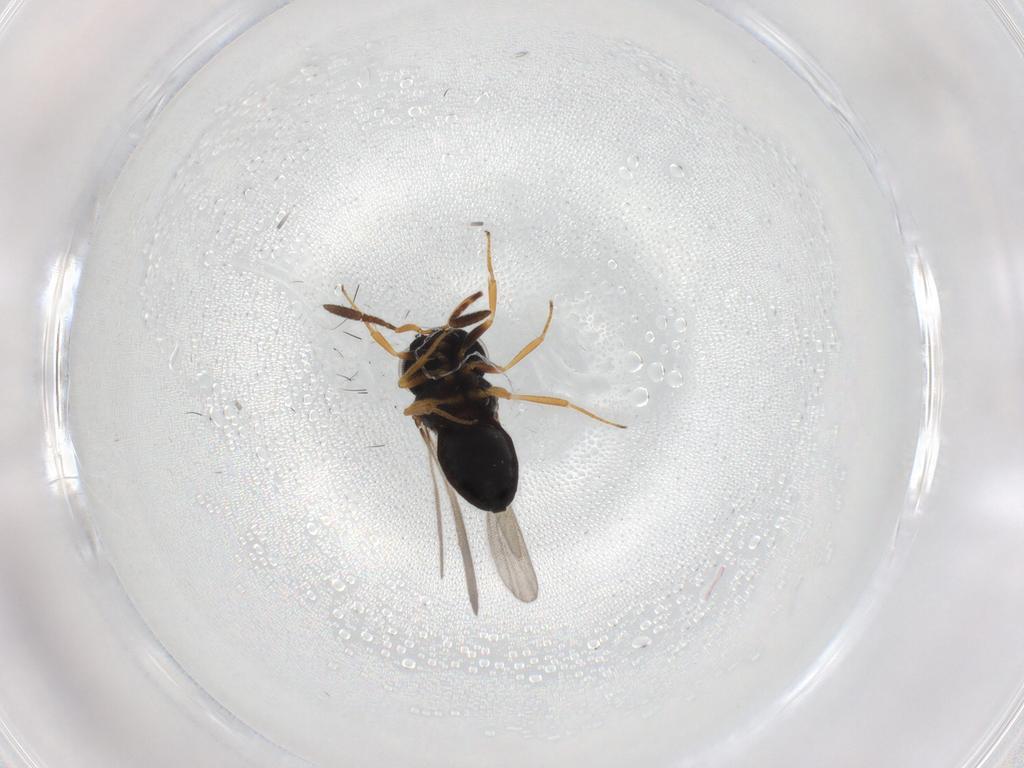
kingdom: Animalia
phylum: Arthropoda
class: Insecta
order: Hymenoptera
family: Scelionidae
